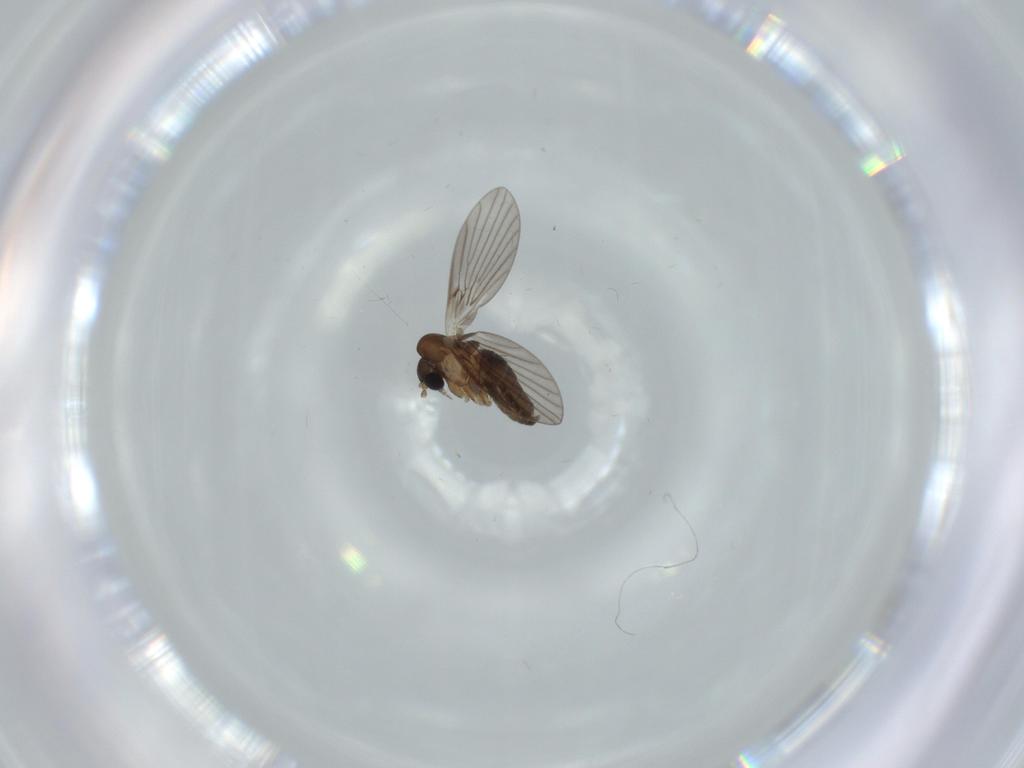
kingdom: Animalia
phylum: Arthropoda
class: Insecta
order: Diptera
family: Psychodidae
